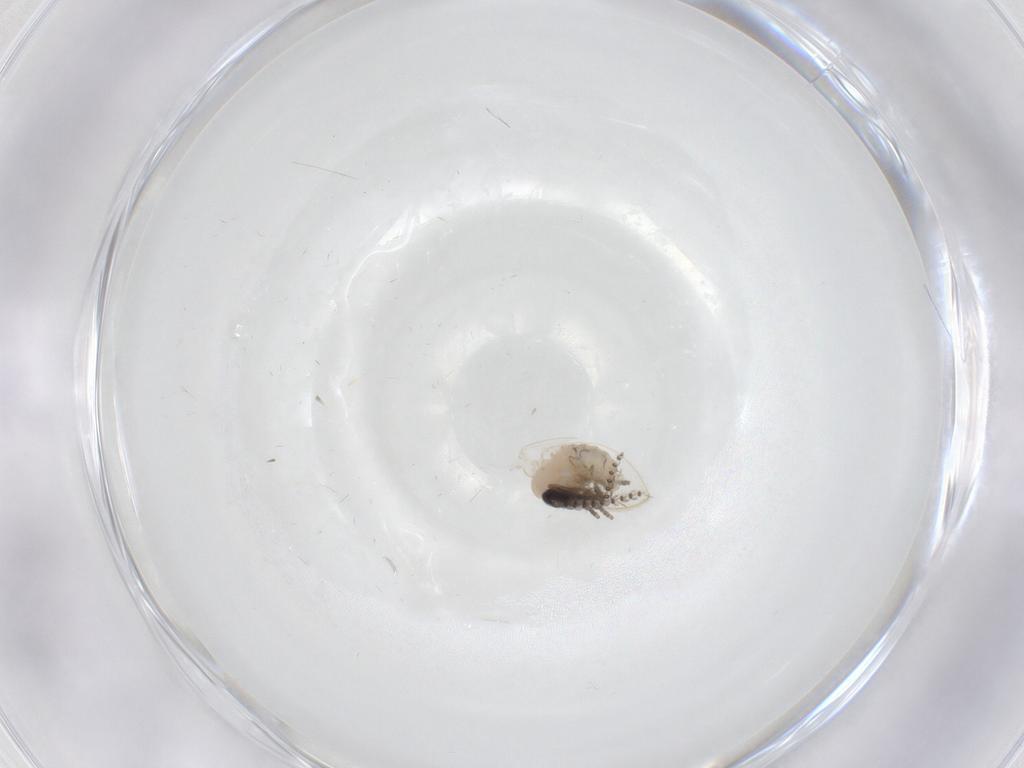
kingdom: Animalia
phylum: Arthropoda
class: Insecta
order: Diptera
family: Psychodidae
